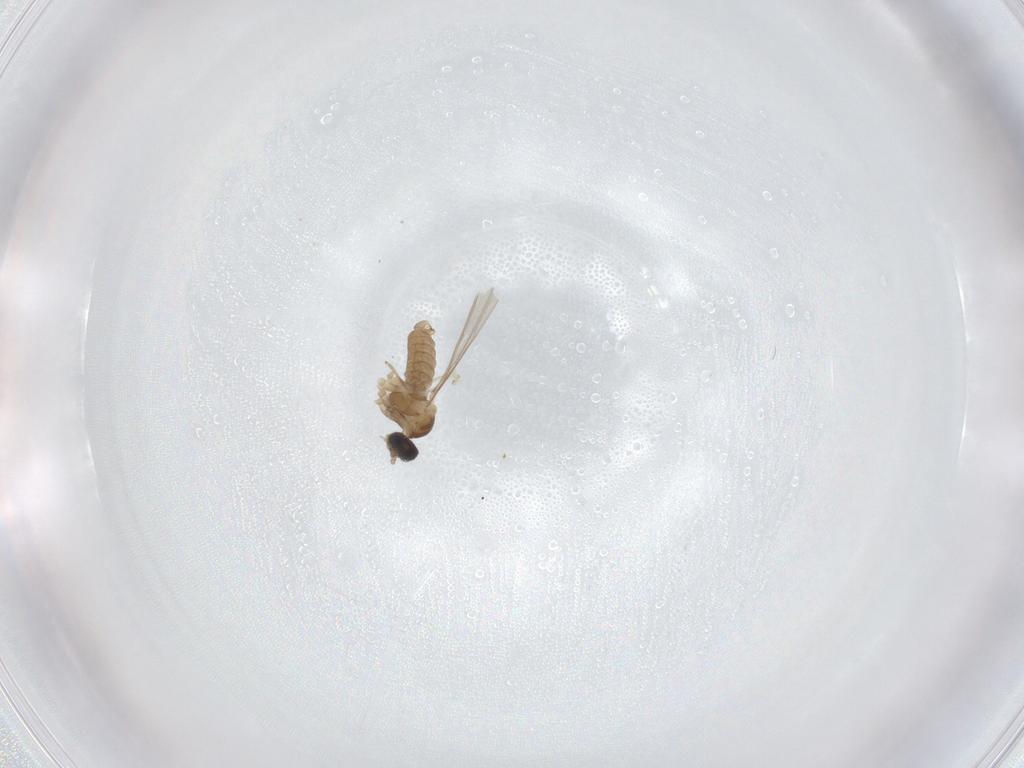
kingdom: Animalia
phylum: Arthropoda
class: Insecta
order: Diptera
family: Cecidomyiidae
